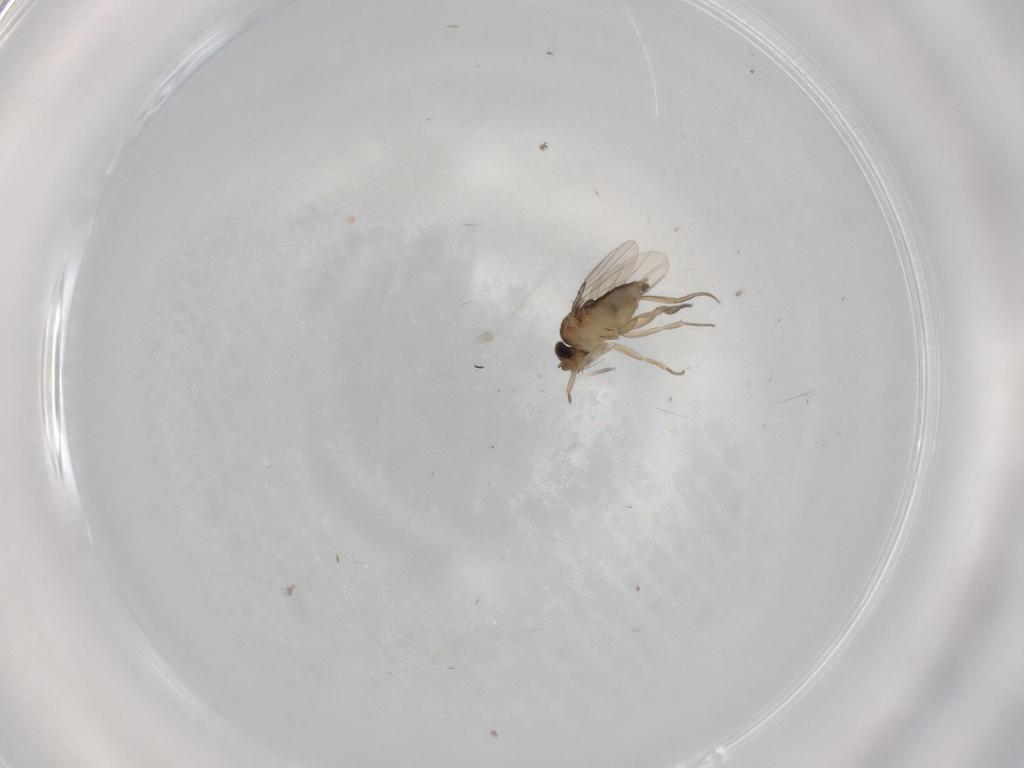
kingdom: Animalia
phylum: Arthropoda
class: Insecta
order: Diptera
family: Phoridae
